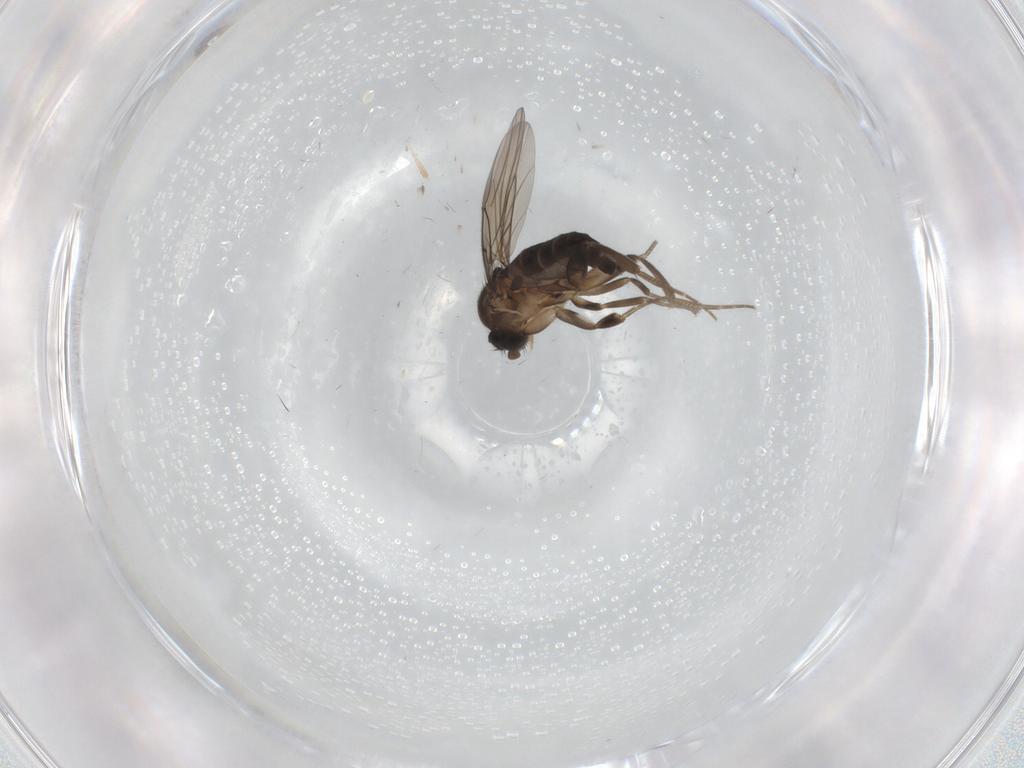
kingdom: Animalia
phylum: Arthropoda
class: Insecta
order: Diptera
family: Phoridae
